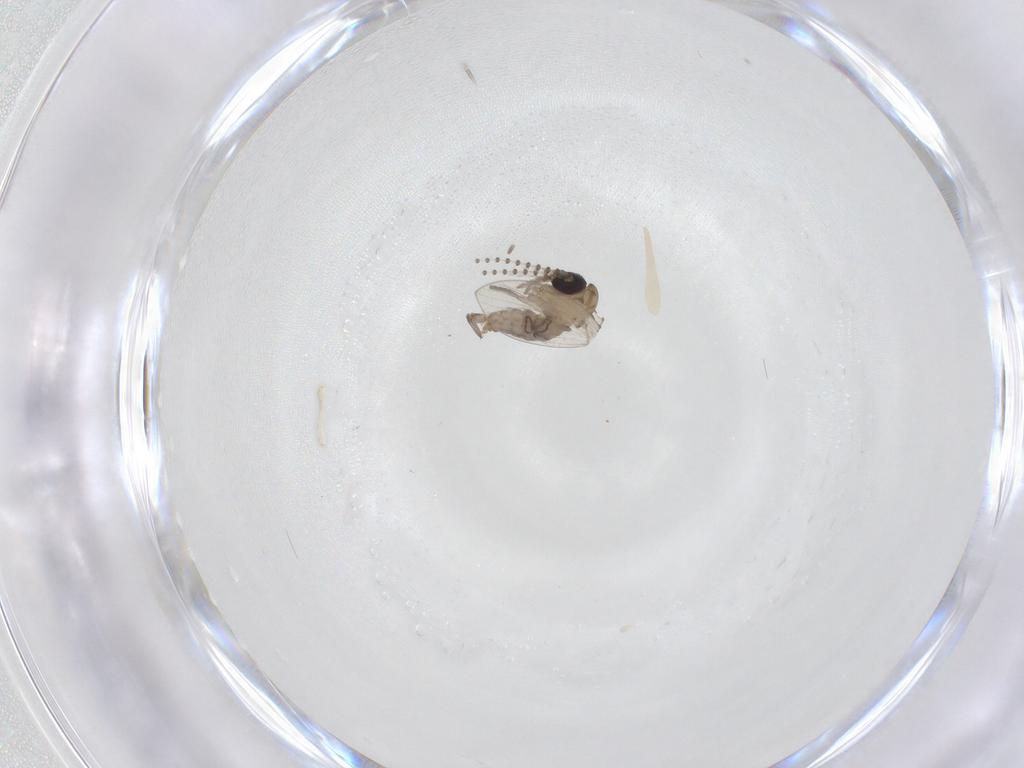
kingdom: Animalia
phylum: Arthropoda
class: Insecta
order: Diptera
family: Psychodidae
